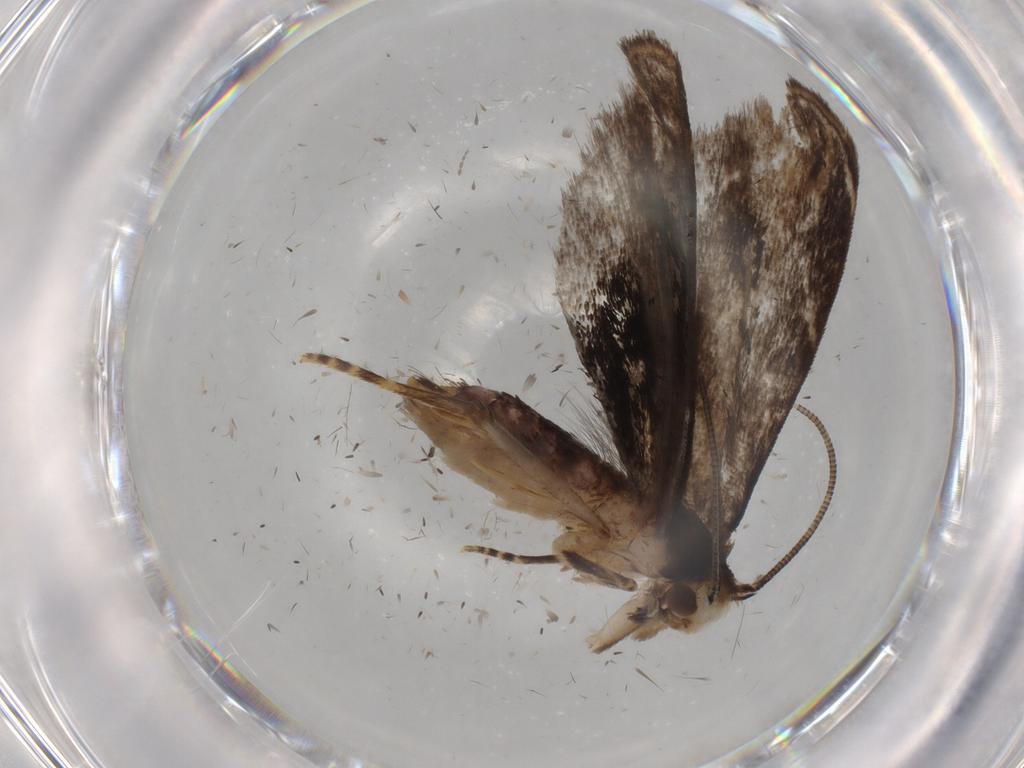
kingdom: Animalia
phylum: Arthropoda
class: Insecta
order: Lepidoptera
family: Dryadaulidae
